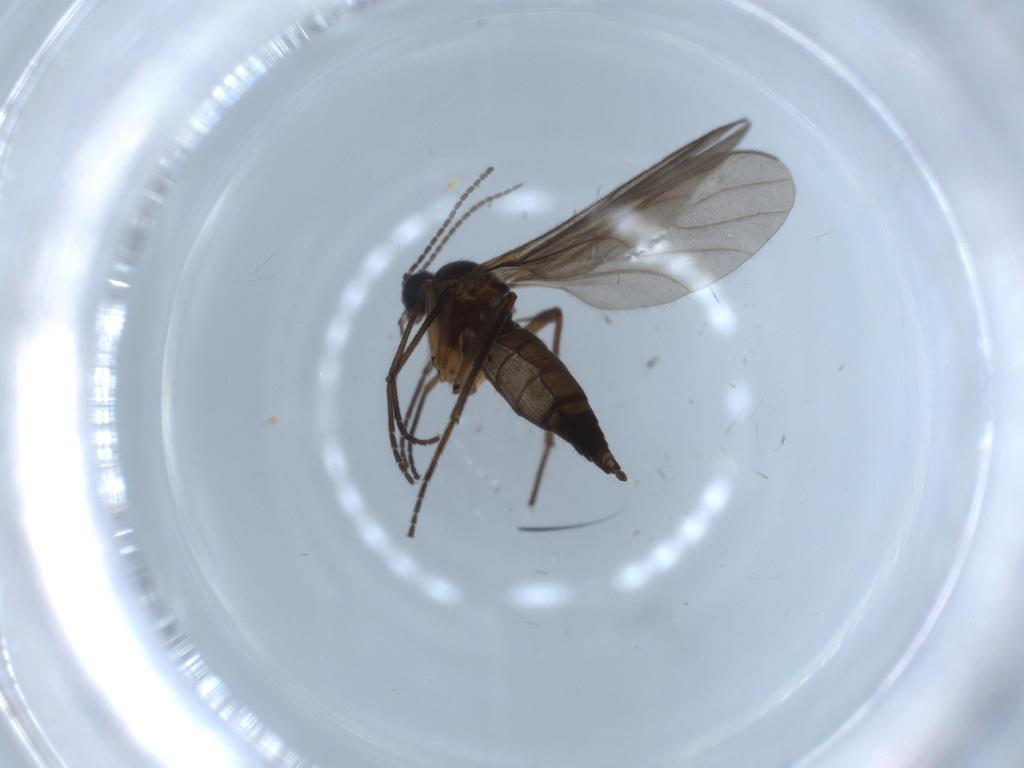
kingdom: Animalia
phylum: Arthropoda
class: Insecta
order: Diptera
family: Sciaridae
